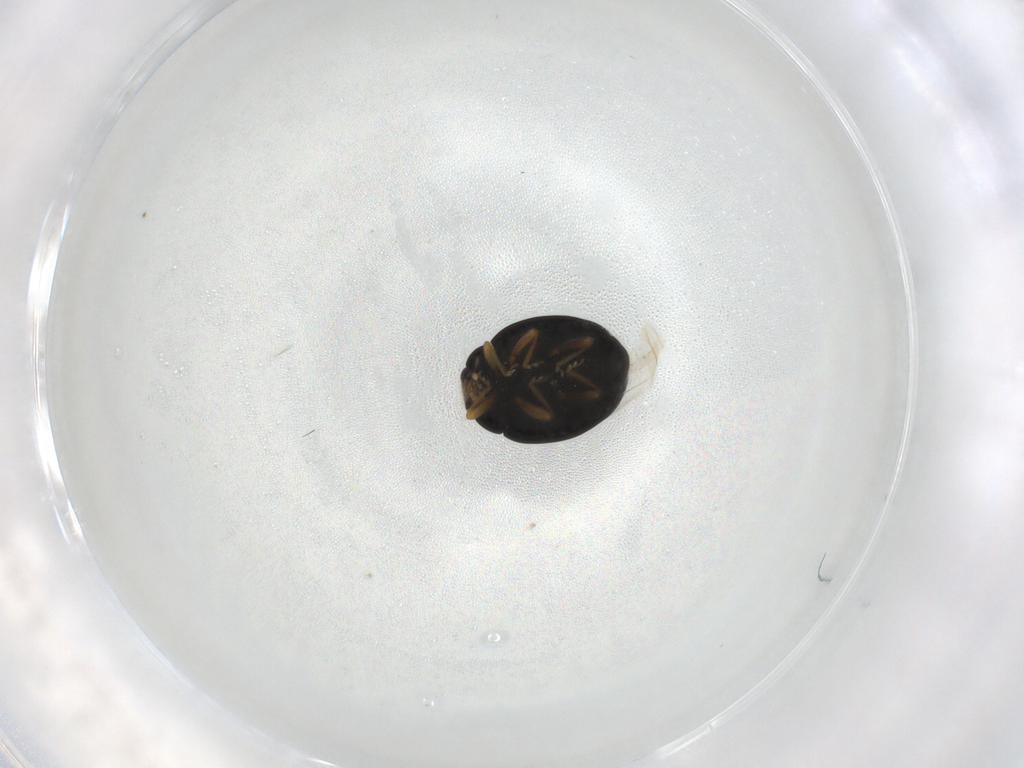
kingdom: Animalia
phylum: Arthropoda
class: Insecta
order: Coleoptera
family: Coccinellidae
